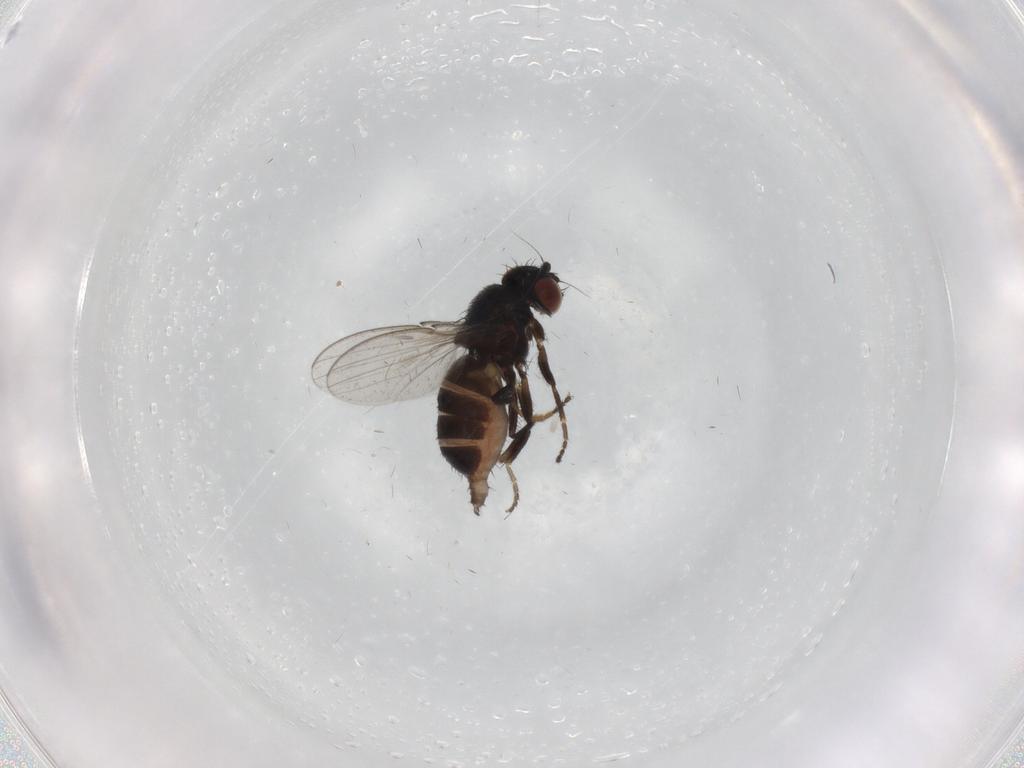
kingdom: Animalia
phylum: Arthropoda
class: Insecta
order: Diptera
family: Milichiidae
